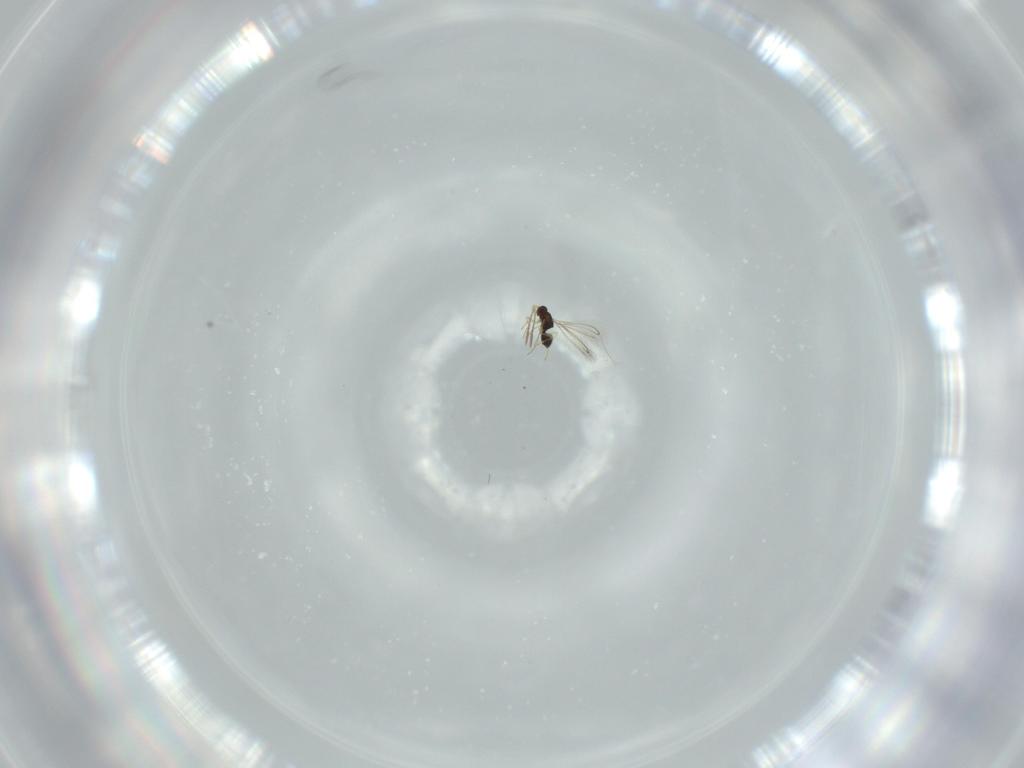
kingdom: Animalia
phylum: Arthropoda
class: Insecta
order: Hymenoptera
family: Mymaridae
